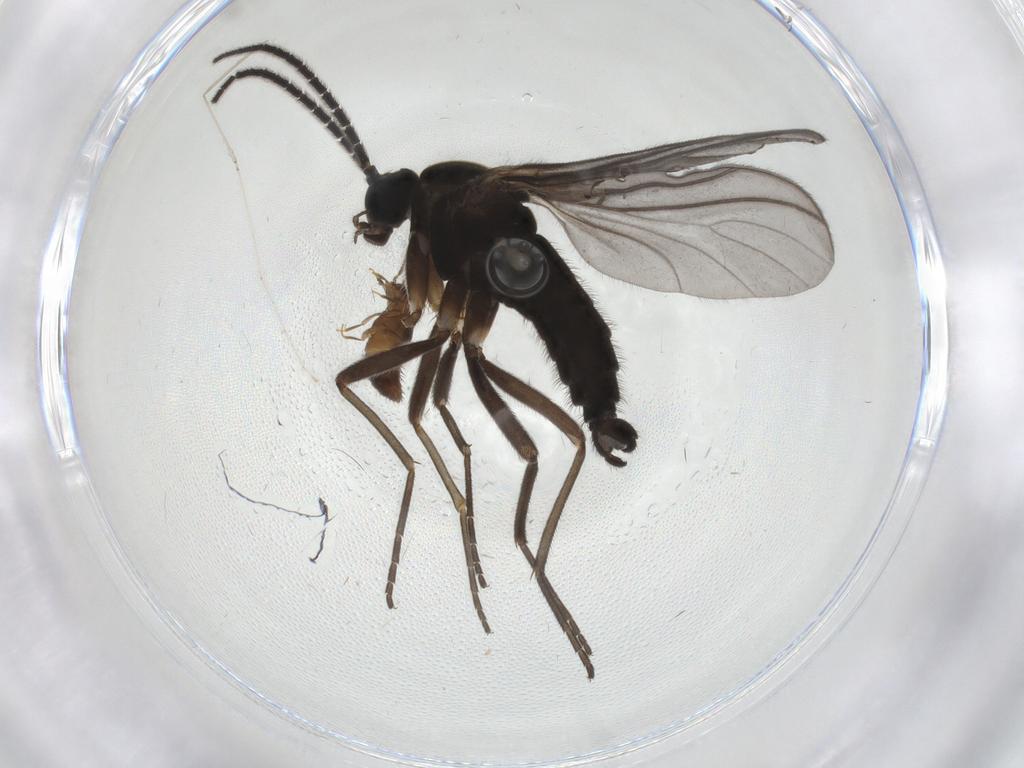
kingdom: Animalia
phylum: Arthropoda
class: Insecta
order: Diptera
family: Sciaridae
